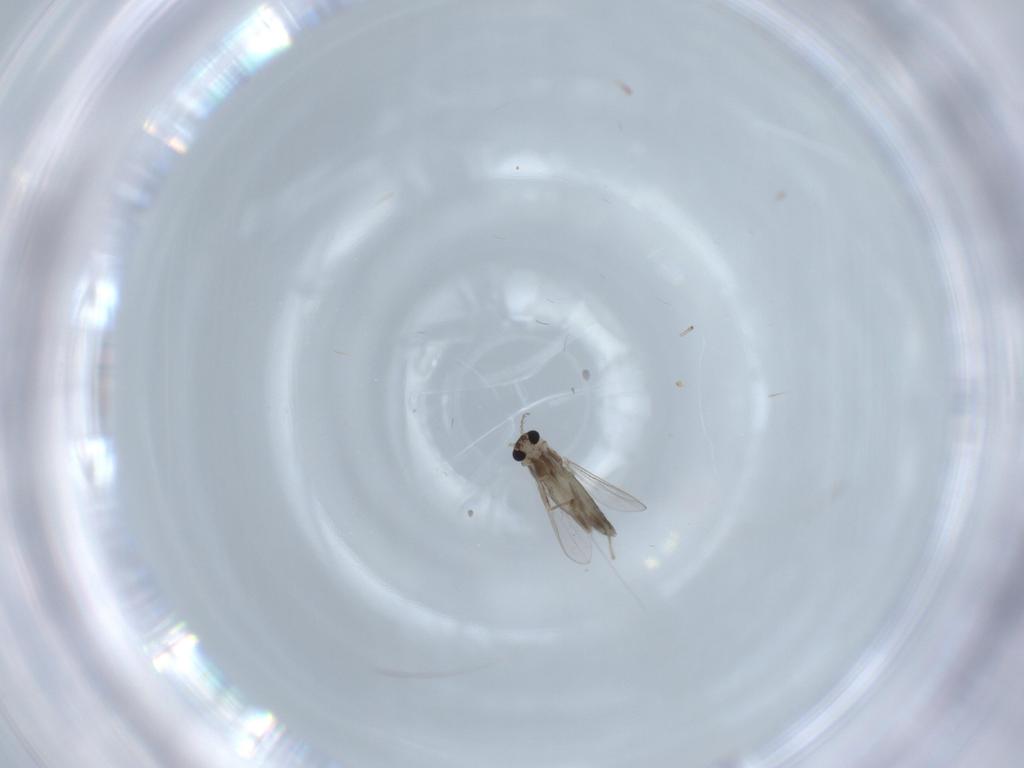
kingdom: Animalia
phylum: Arthropoda
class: Insecta
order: Diptera
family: Chironomidae
